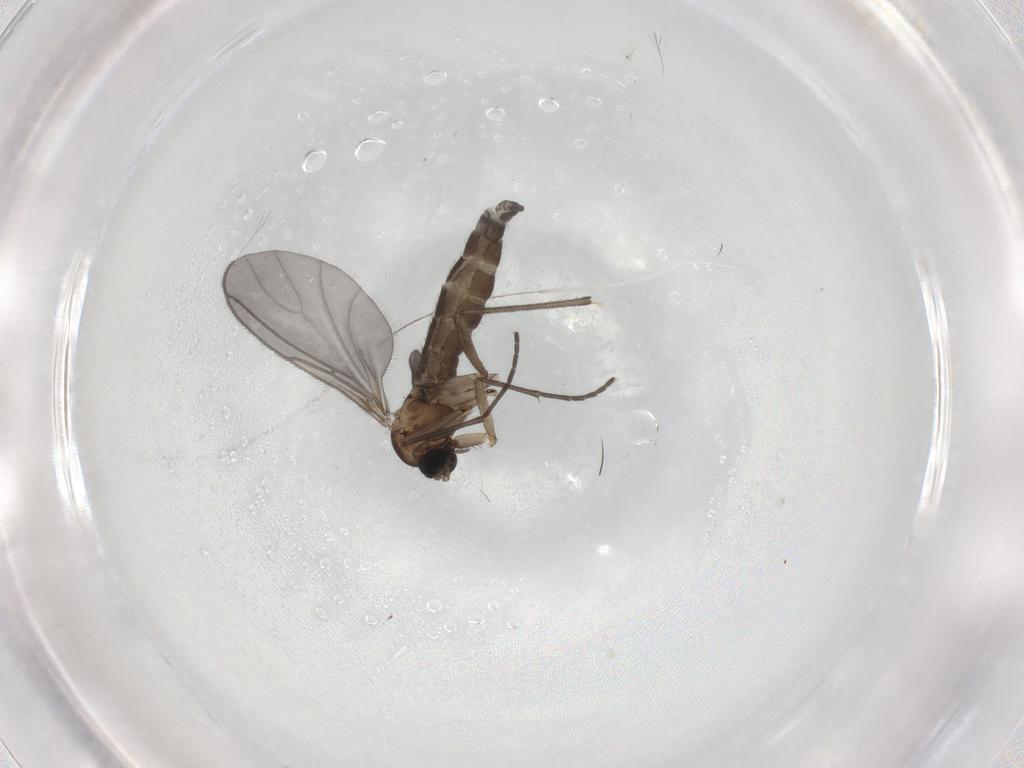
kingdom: Animalia
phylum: Arthropoda
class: Insecta
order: Diptera
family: Sciaridae
